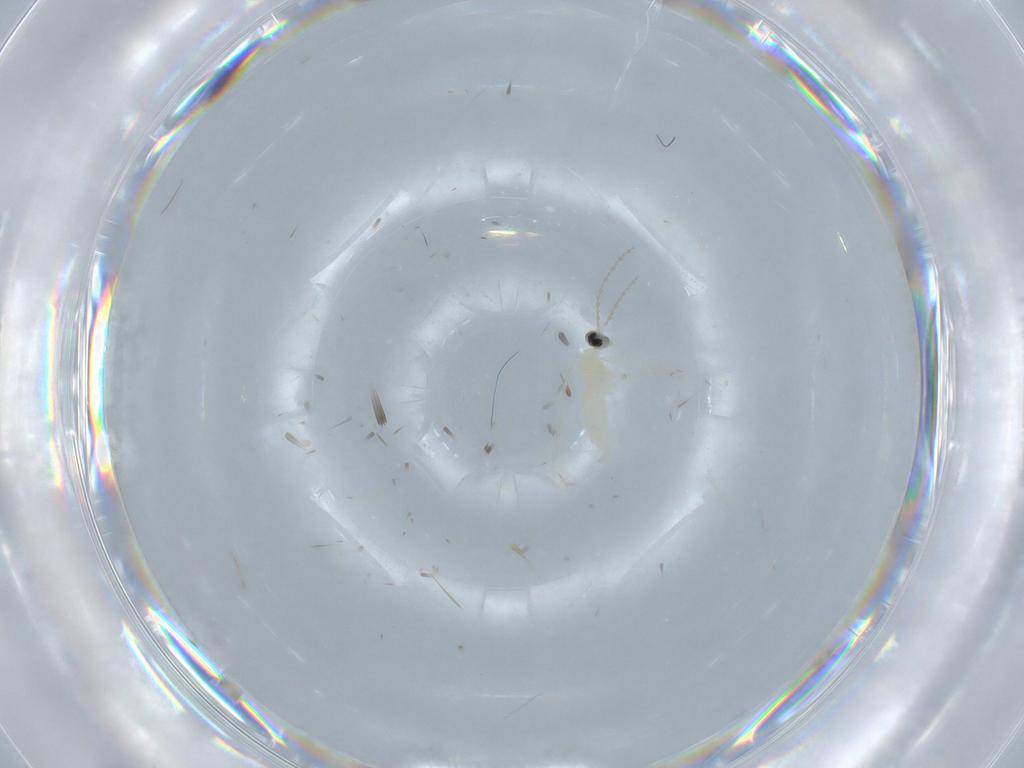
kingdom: Animalia
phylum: Arthropoda
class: Insecta
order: Diptera
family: Cecidomyiidae
